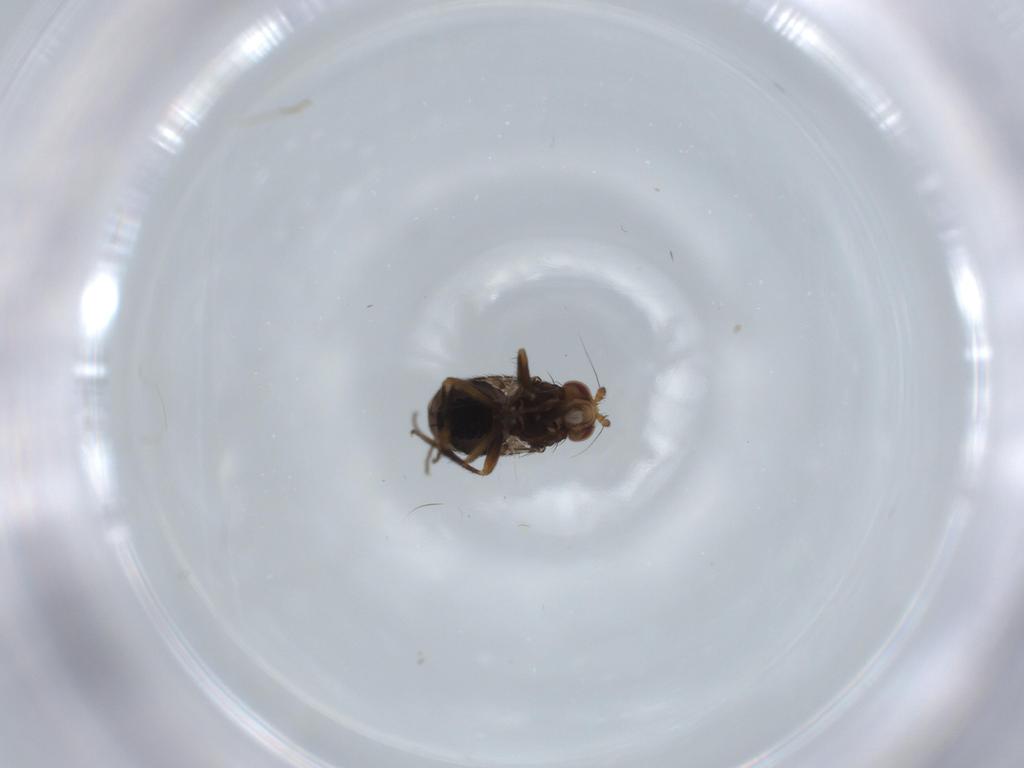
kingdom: Animalia
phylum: Arthropoda
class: Insecta
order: Diptera
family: Sphaeroceridae
